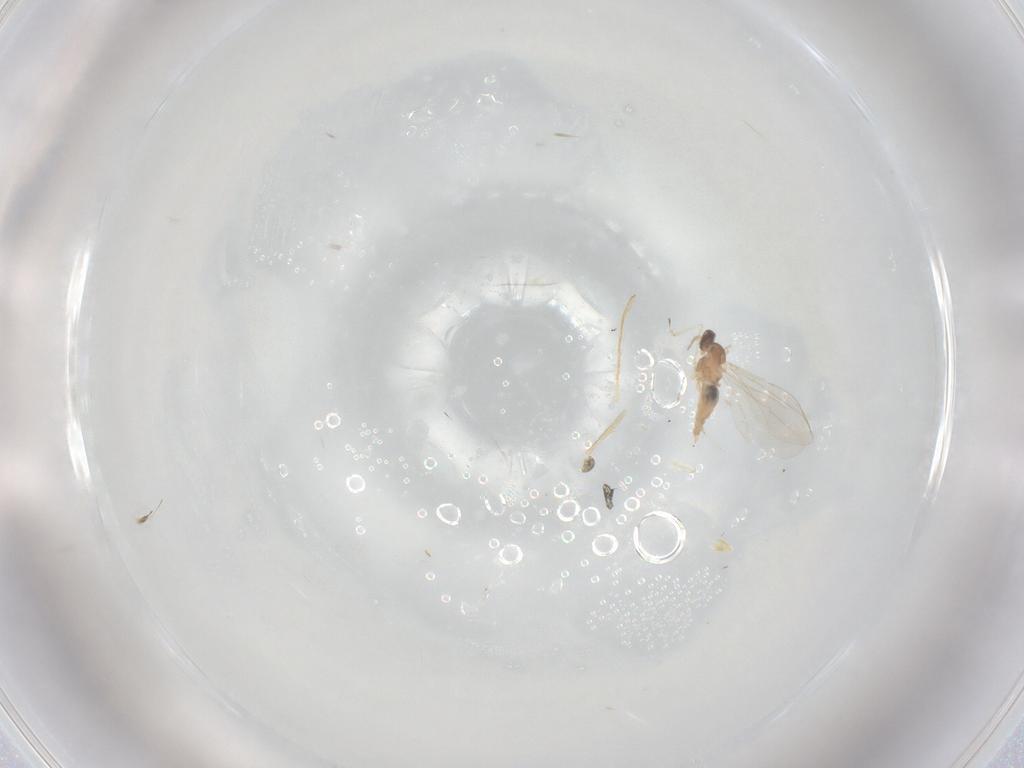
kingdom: Animalia
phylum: Arthropoda
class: Insecta
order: Diptera
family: Cecidomyiidae
